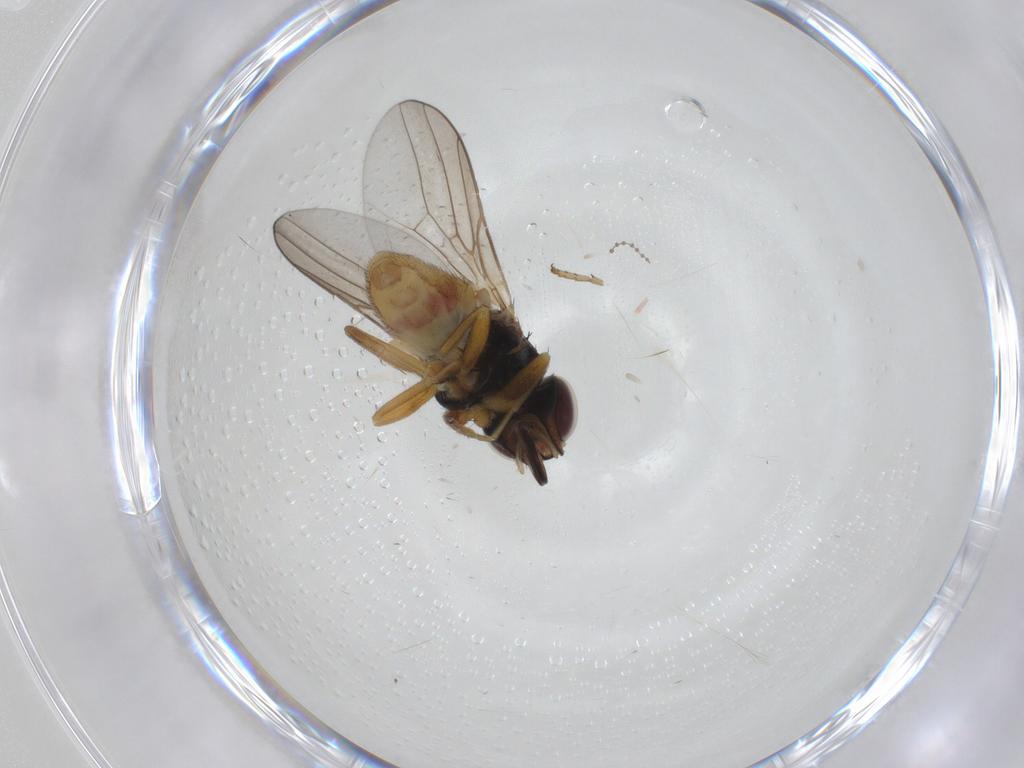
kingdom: Animalia
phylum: Arthropoda
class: Insecta
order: Diptera
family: Chloropidae
